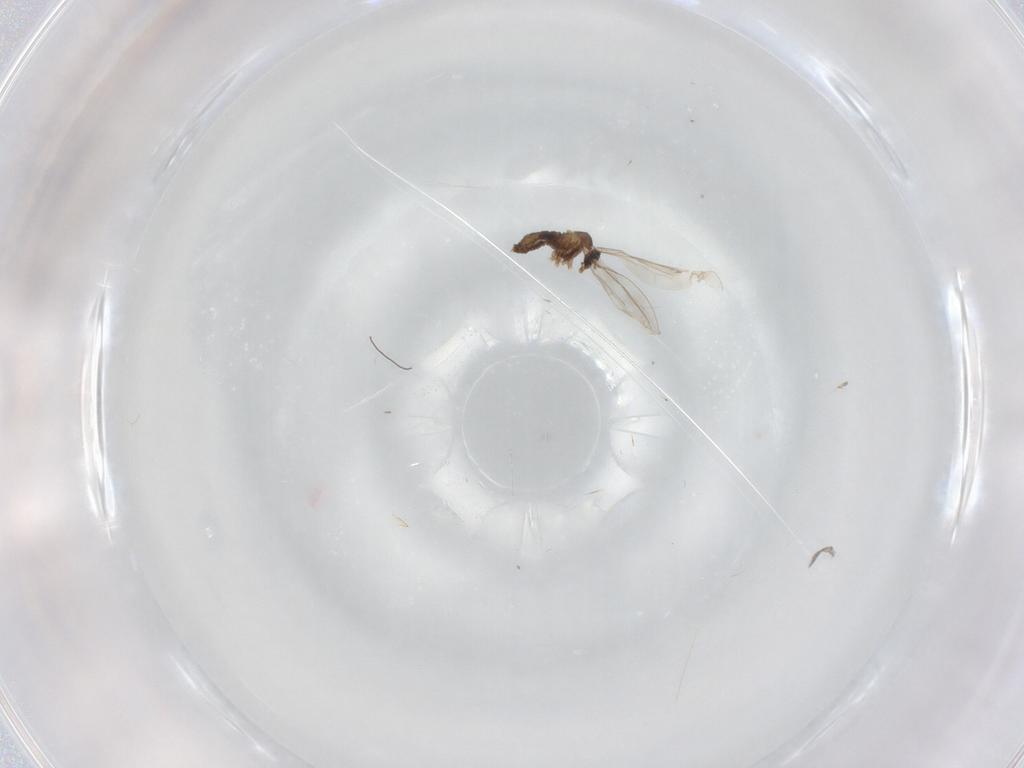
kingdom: Animalia
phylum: Arthropoda
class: Insecta
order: Diptera
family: Cecidomyiidae
